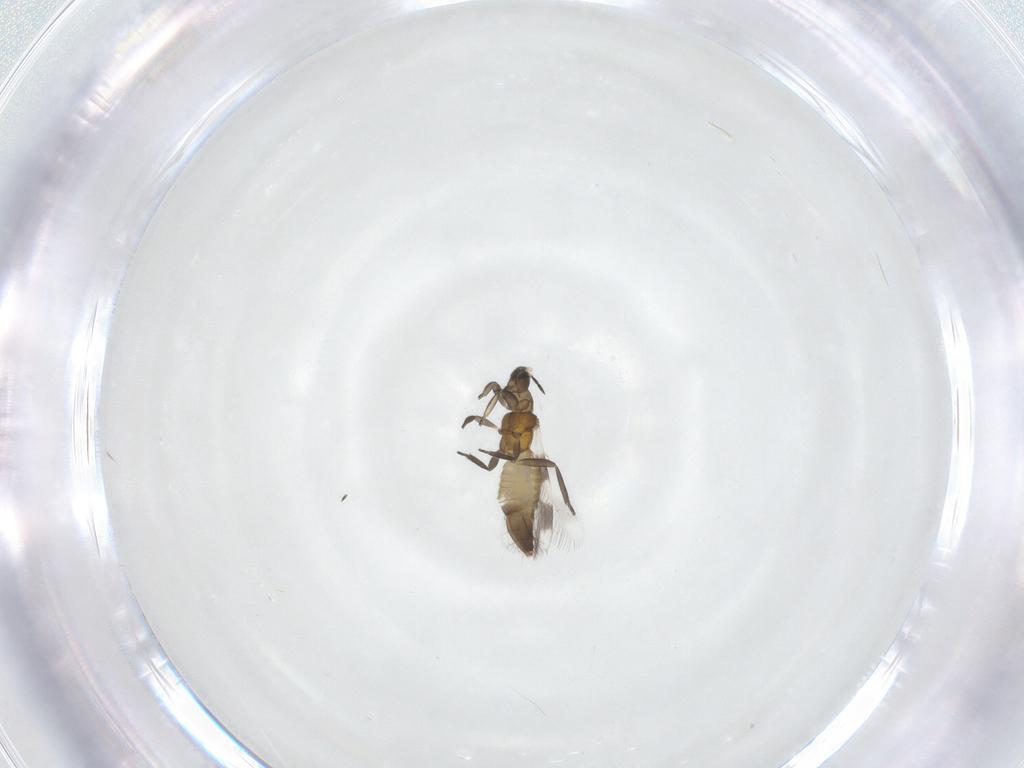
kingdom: Animalia
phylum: Arthropoda
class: Insecta
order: Thysanoptera
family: Aeolothripidae
